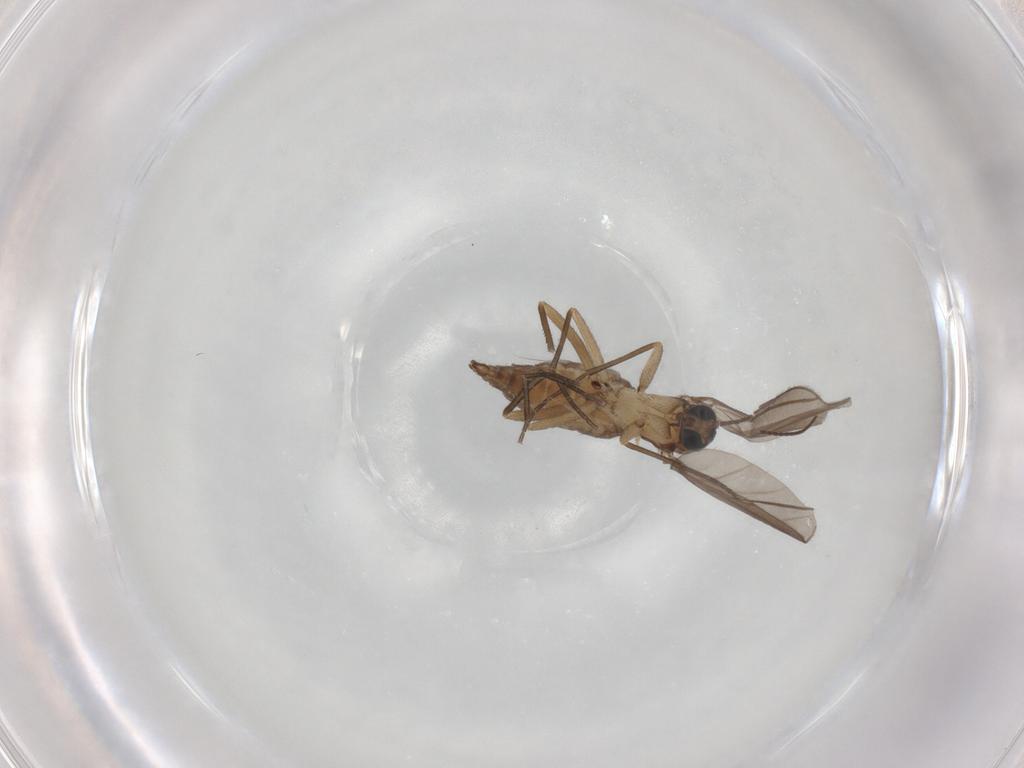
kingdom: Animalia
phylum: Arthropoda
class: Insecta
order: Diptera
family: Sciaridae
